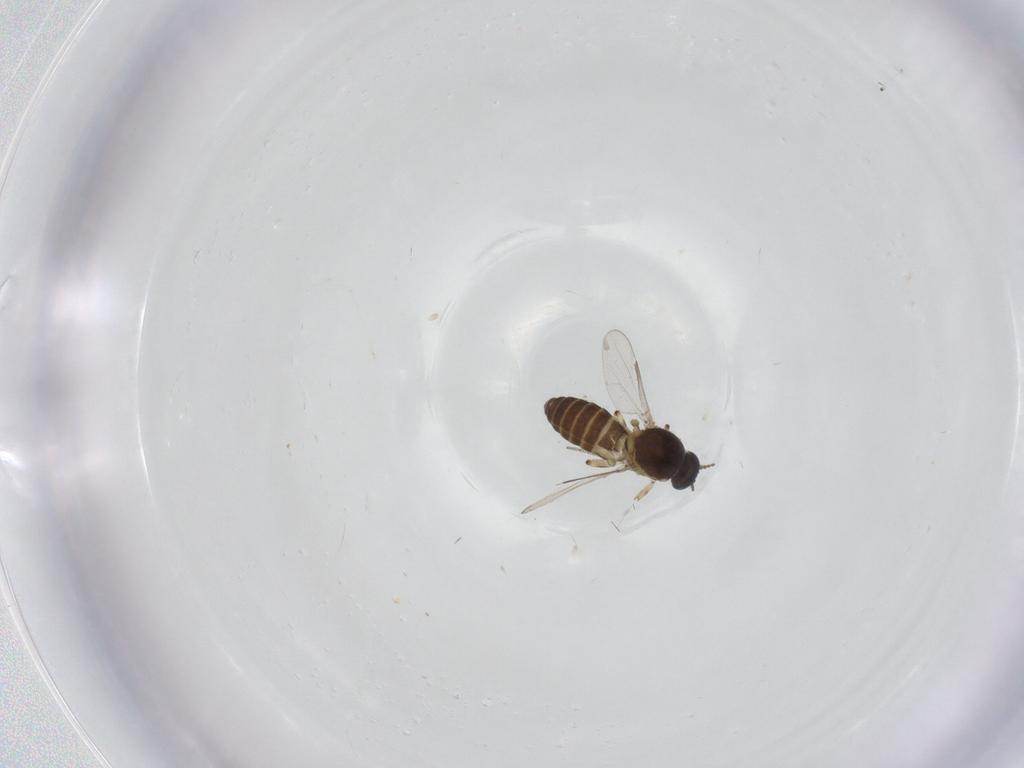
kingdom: Animalia
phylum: Arthropoda
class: Insecta
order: Diptera
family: Ceratopogonidae
